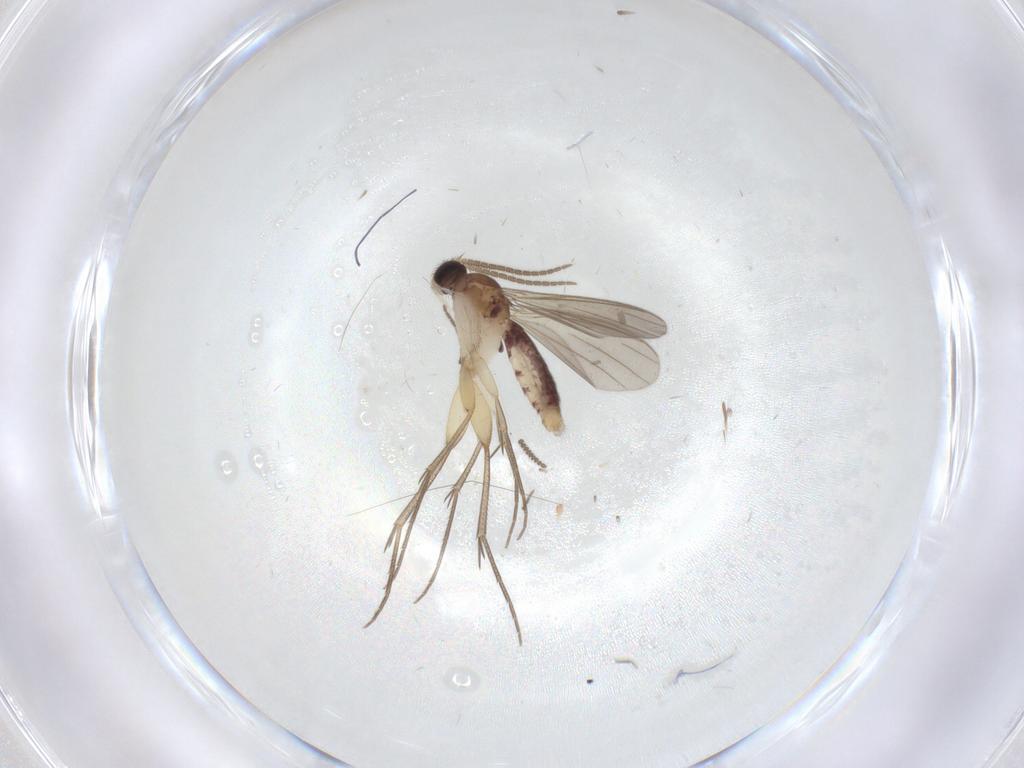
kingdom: Animalia
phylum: Arthropoda
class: Insecta
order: Diptera
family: Mycetophilidae
